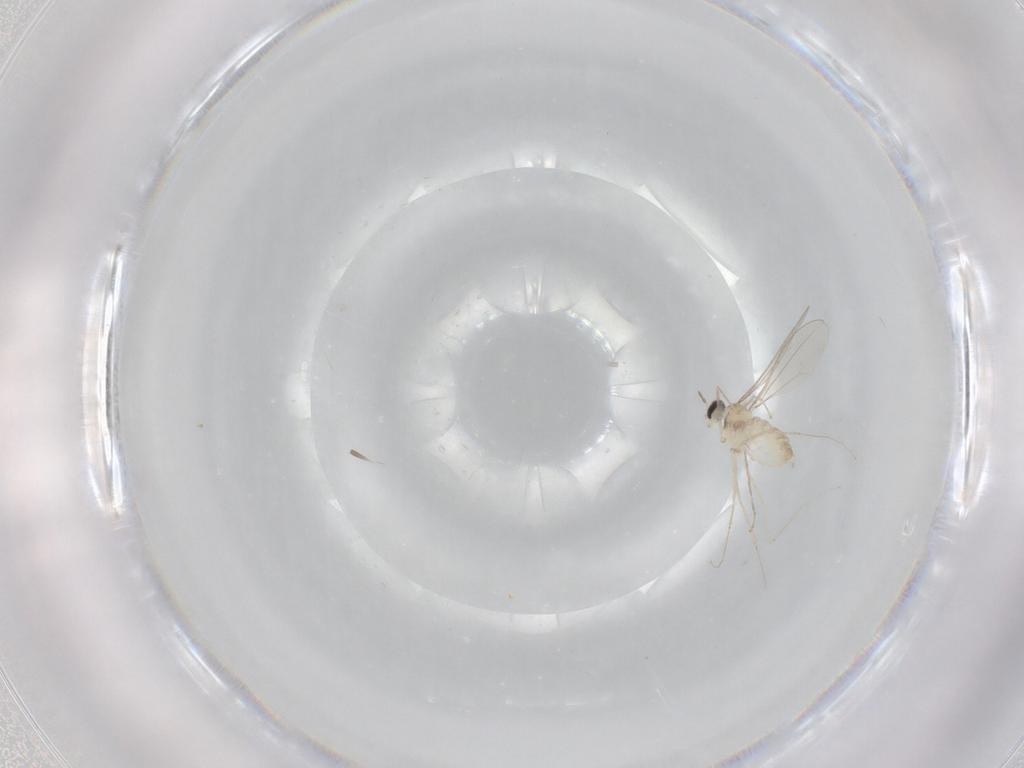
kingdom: Animalia
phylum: Arthropoda
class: Insecta
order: Diptera
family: Cecidomyiidae
